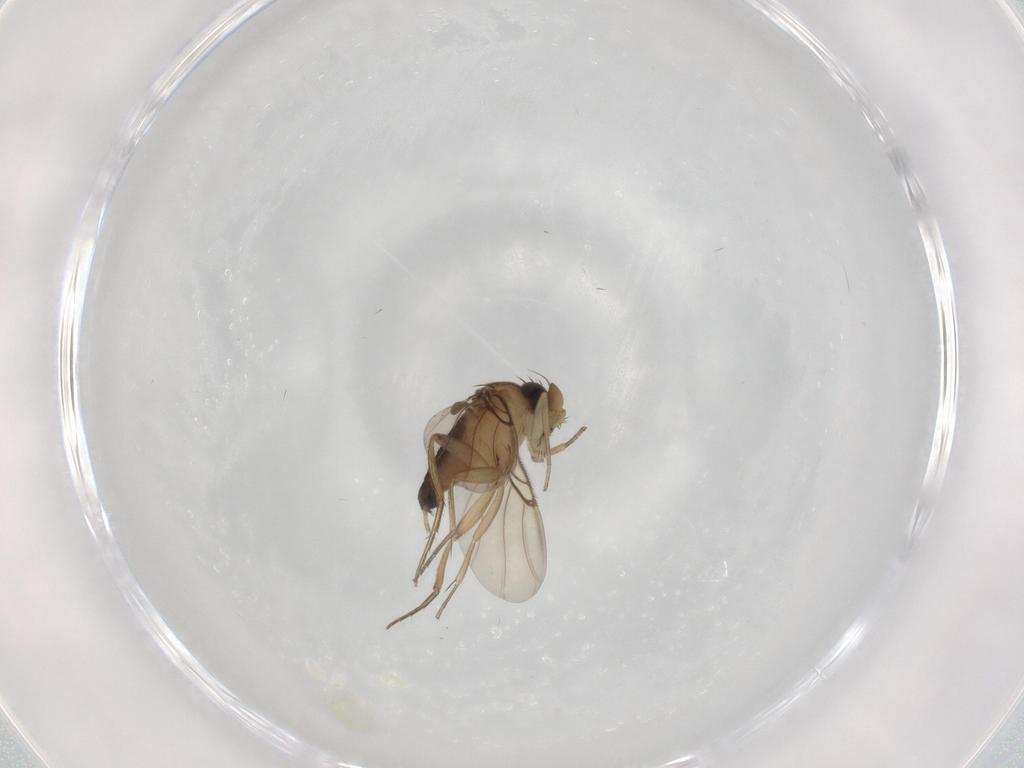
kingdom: Animalia
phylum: Arthropoda
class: Insecta
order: Diptera
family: Phoridae
